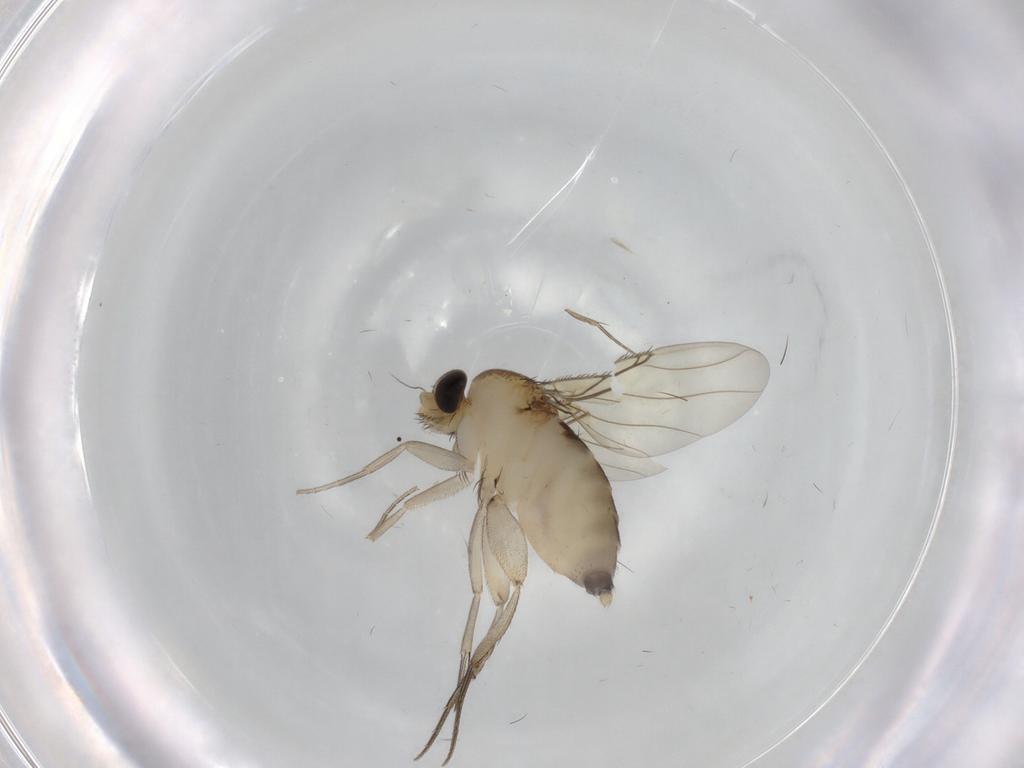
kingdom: Animalia
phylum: Arthropoda
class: Insecta
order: Diptera
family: Phoridae
